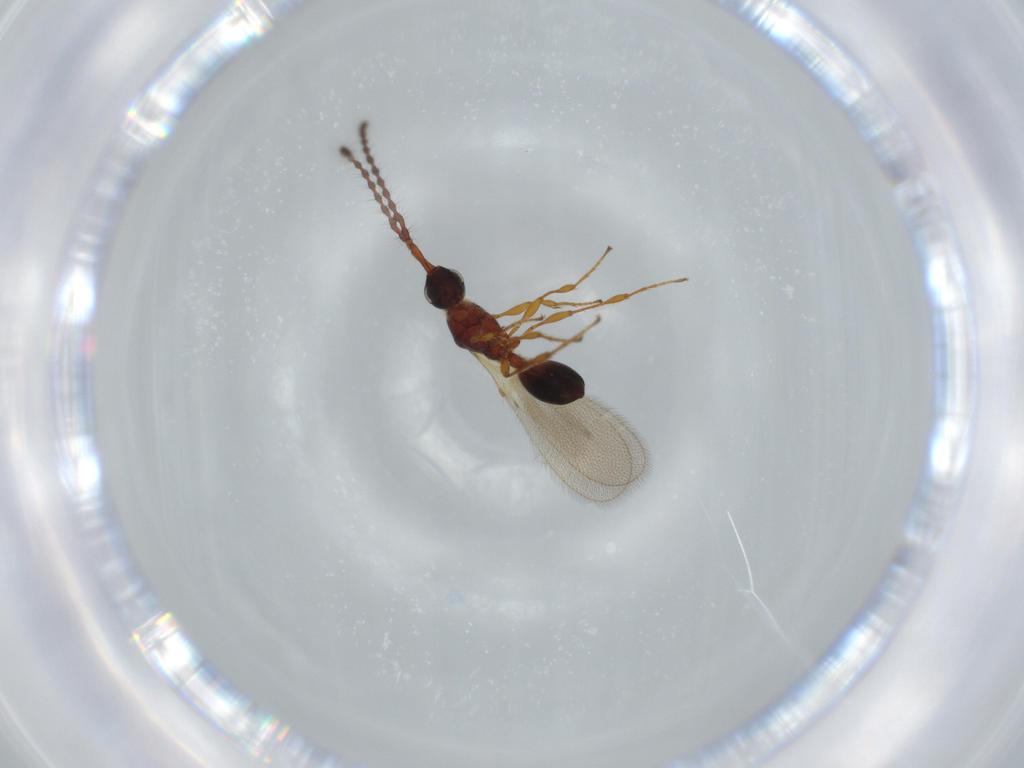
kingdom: Animalia
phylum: Arthropoda
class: Insecta
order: Hymenoptera
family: Diapriidae
